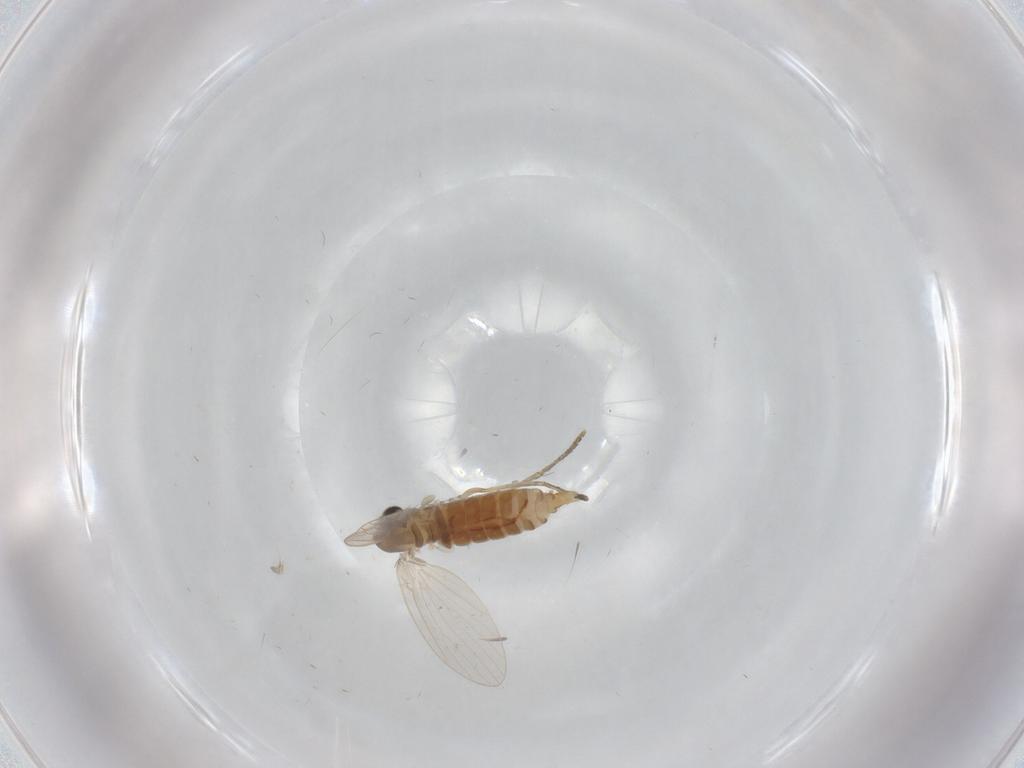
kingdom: Animalia
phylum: Arthropoda
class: Insecta
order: Diptera
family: Psychodidae
